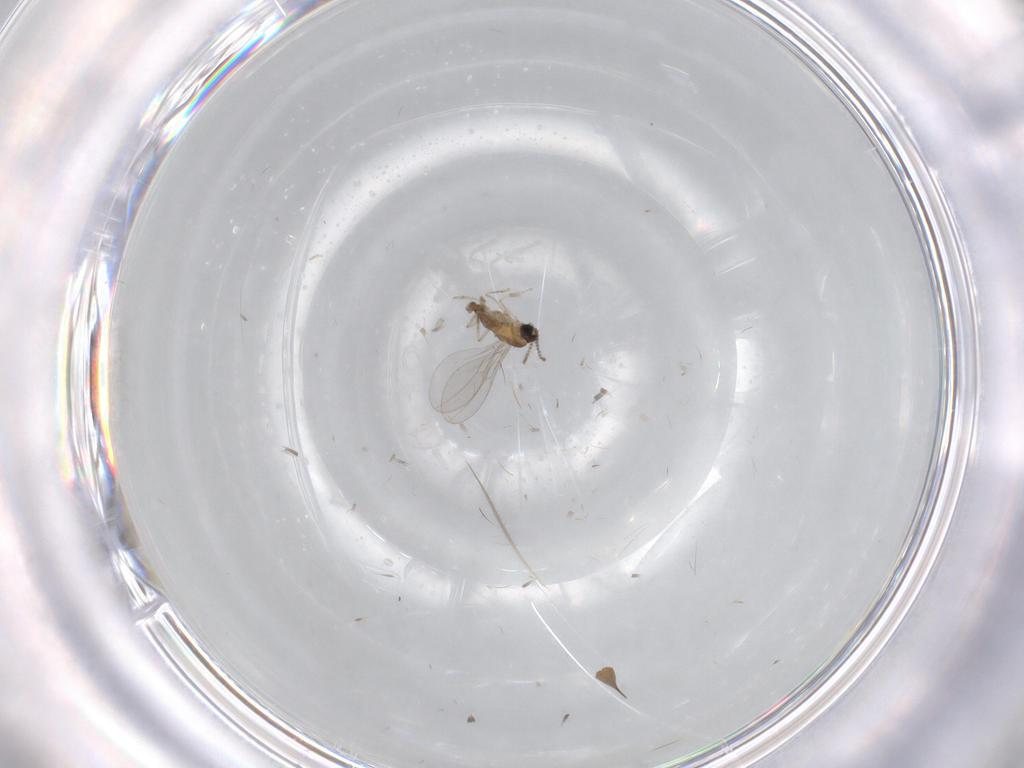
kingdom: Animalia
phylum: Arthropoda
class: Insecta
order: Diptera
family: Cecidomyiidae
